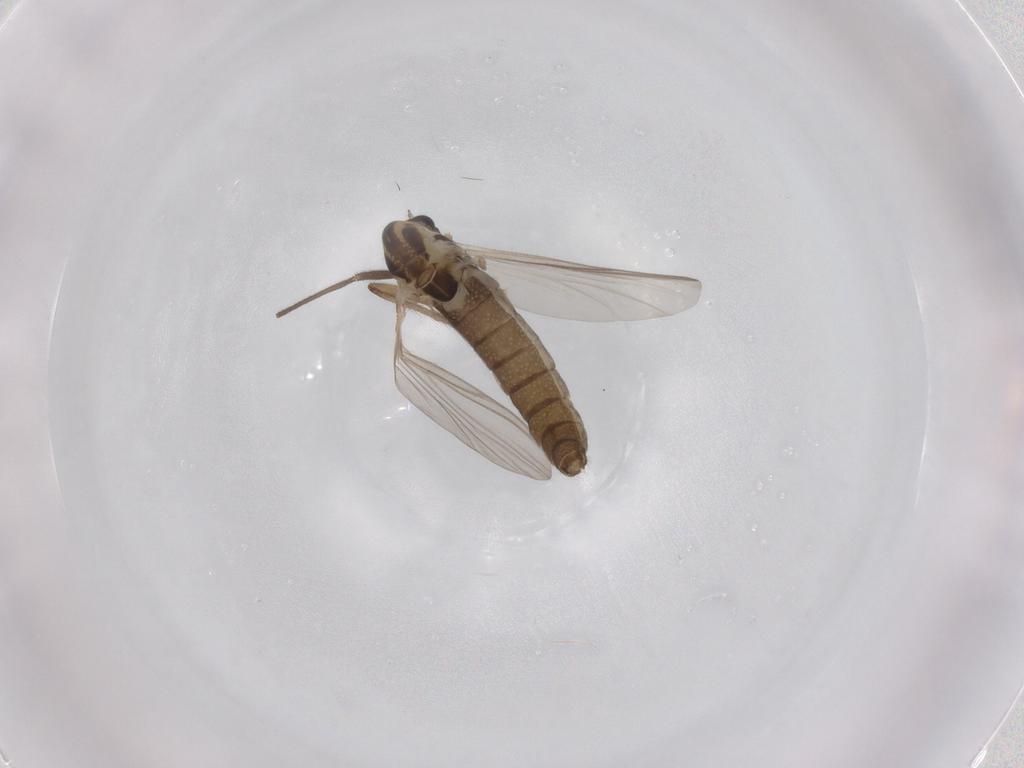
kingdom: Animalia
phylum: Arthropoda
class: Insecta
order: Diptera
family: Chironomidae
